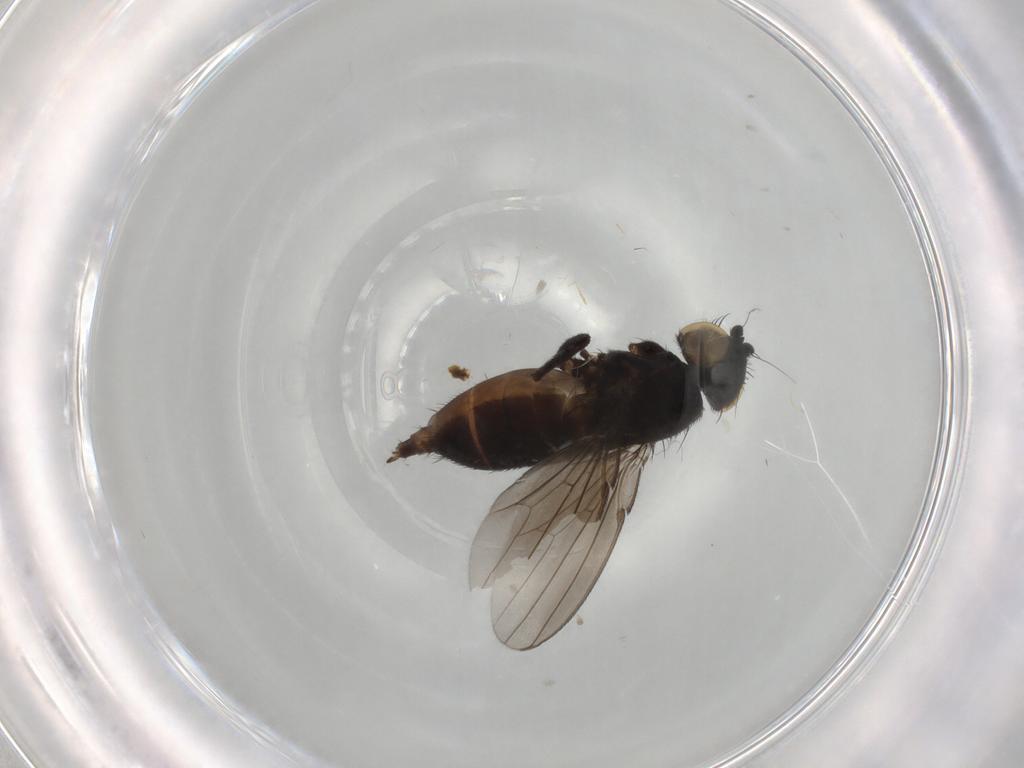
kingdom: Animalia
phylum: Arthropoda
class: Insecta
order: Diptera
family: Milichiidae
